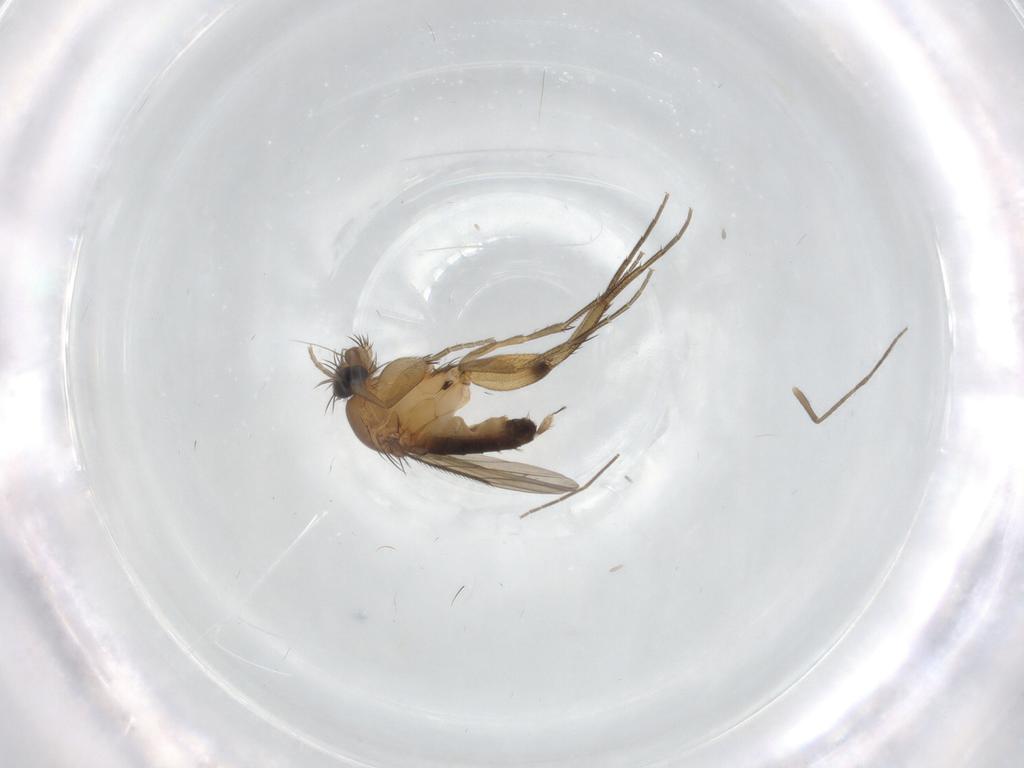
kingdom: Animalia
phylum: Arthropoda
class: Insecta
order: Diptera
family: Phoridae
